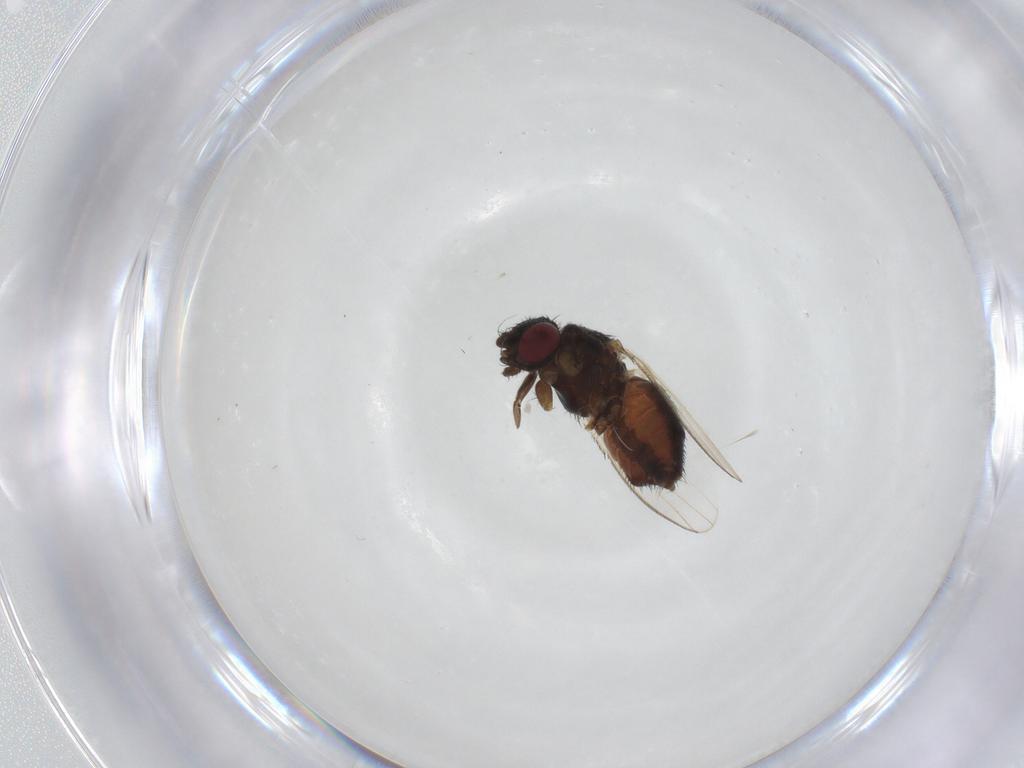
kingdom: Animalia
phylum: Arthropoda
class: Insecta
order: Diptera
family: Milichiidae
